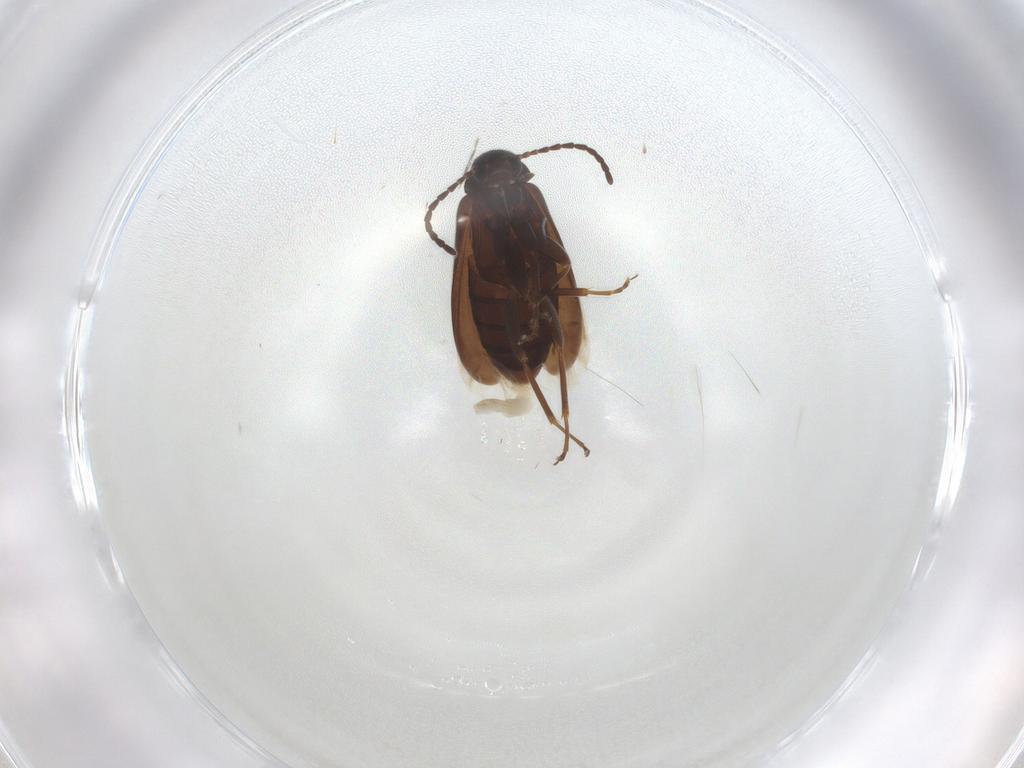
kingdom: Animalia
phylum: Arthropoda
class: Insecta
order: Coleoptera
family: Scraptiidae
